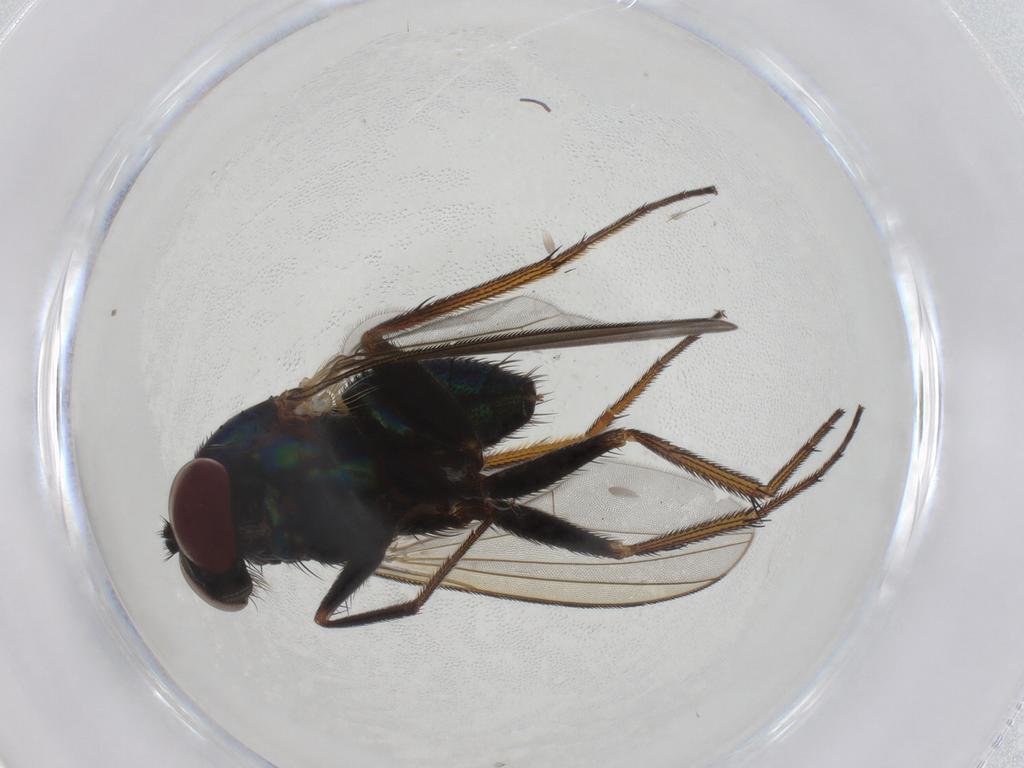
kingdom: Animalia
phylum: Arthropoda
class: Insecta
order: Diptera
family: Dolichopodidae
